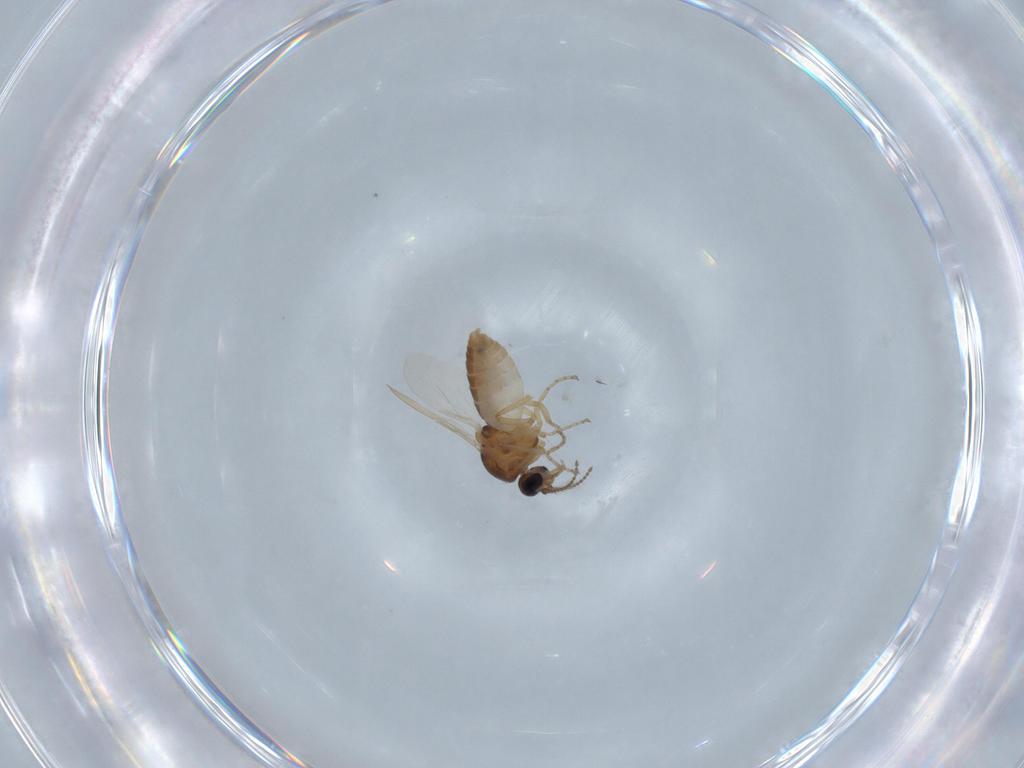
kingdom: Animalia
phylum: Arthropoda
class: Insecta
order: Diptera
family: Ceratopogonidae
